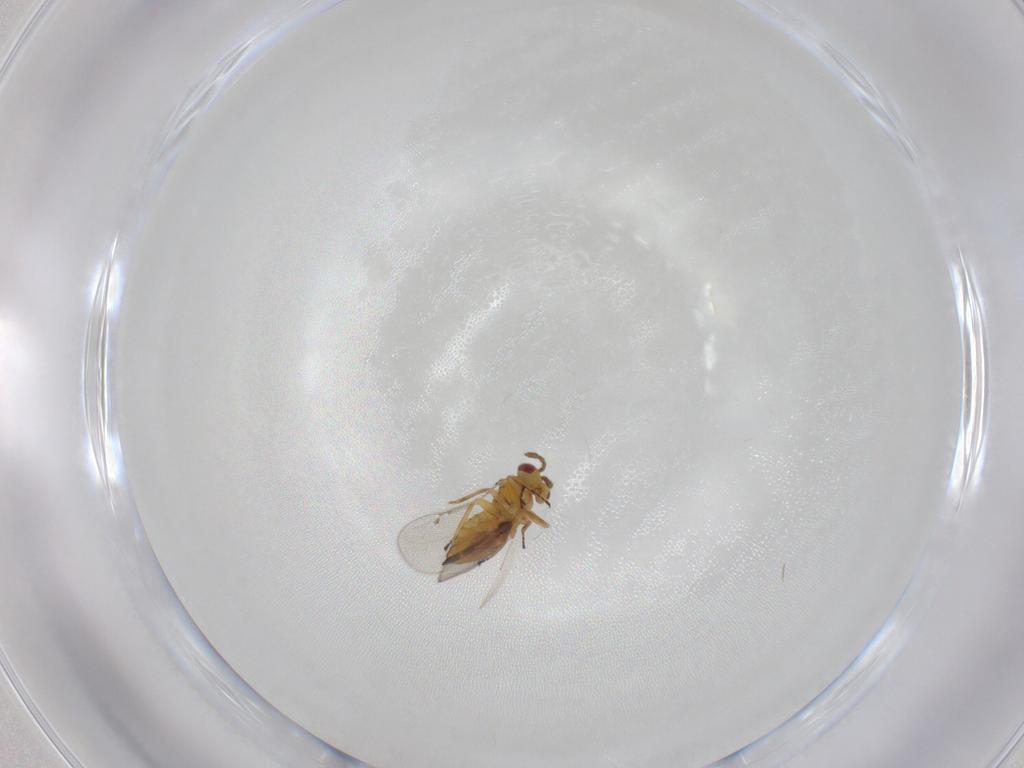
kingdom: Animalia
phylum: Arthropoda
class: Insecta
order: Hymenoptera
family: Eulophidae
